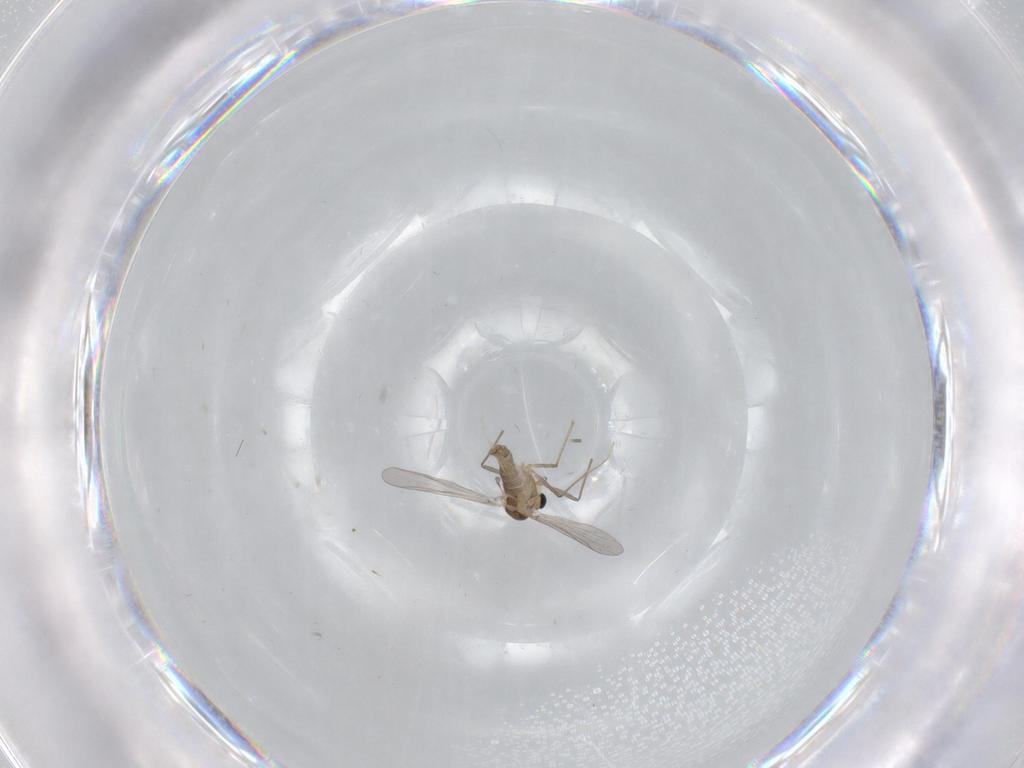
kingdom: Animalia
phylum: Arthropoda
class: Insecta
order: Diptera
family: Chironomidae
